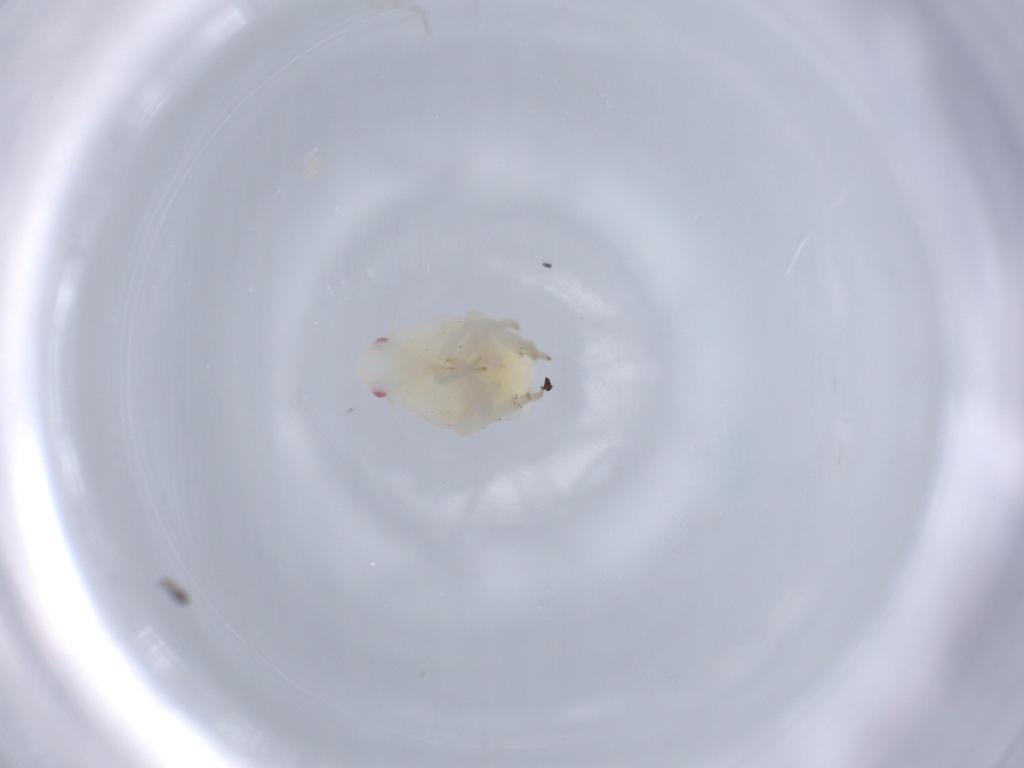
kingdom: Animalia
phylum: Arthropoda
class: Insecta
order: Hemiptera
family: Flatidae
